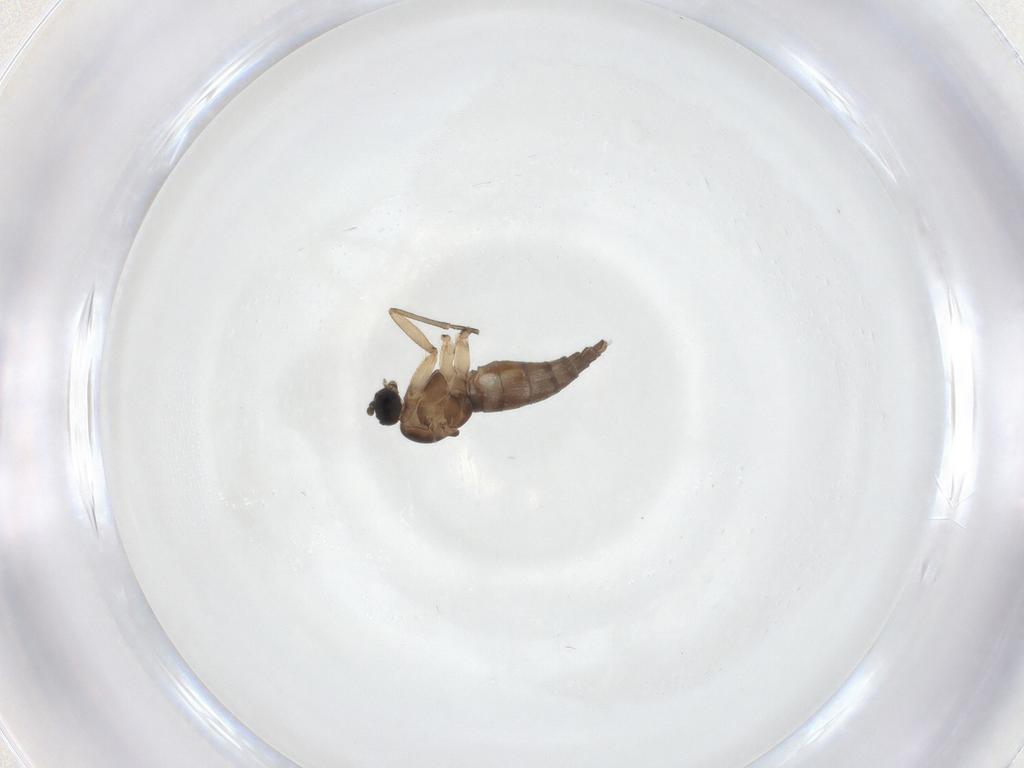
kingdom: Animalia
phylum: Arthropoda
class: Insecta
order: Diptera
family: Sciaridae
